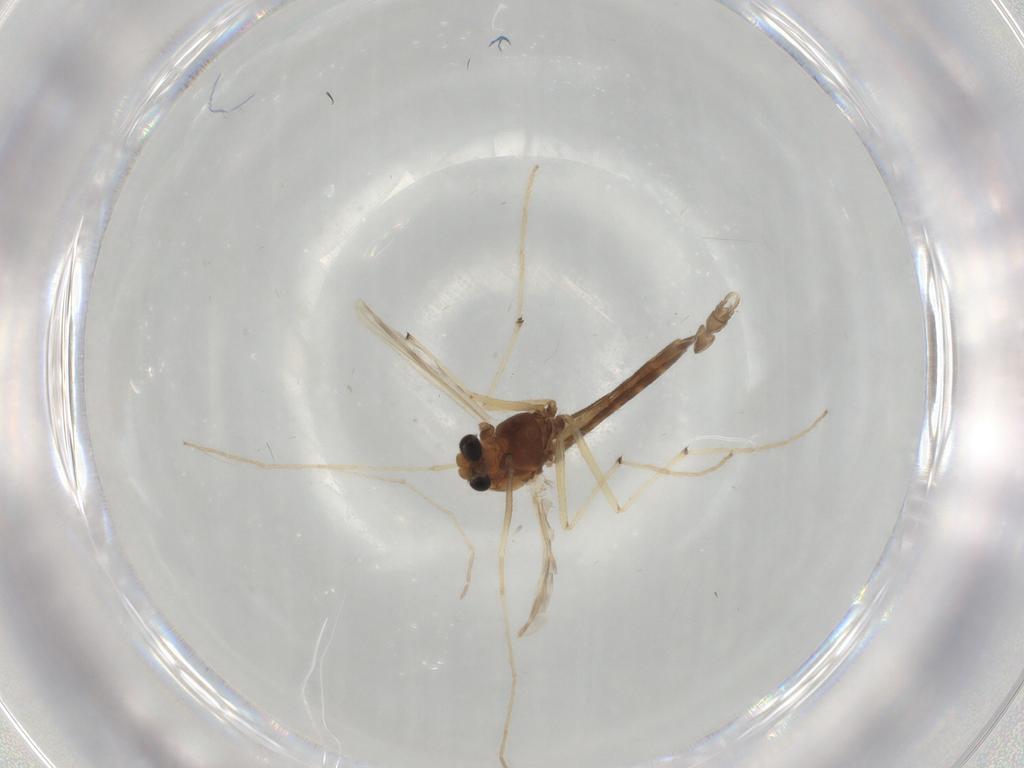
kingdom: Animalia
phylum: Arthropoda
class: Insecta
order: Diptera
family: Chironomidae
